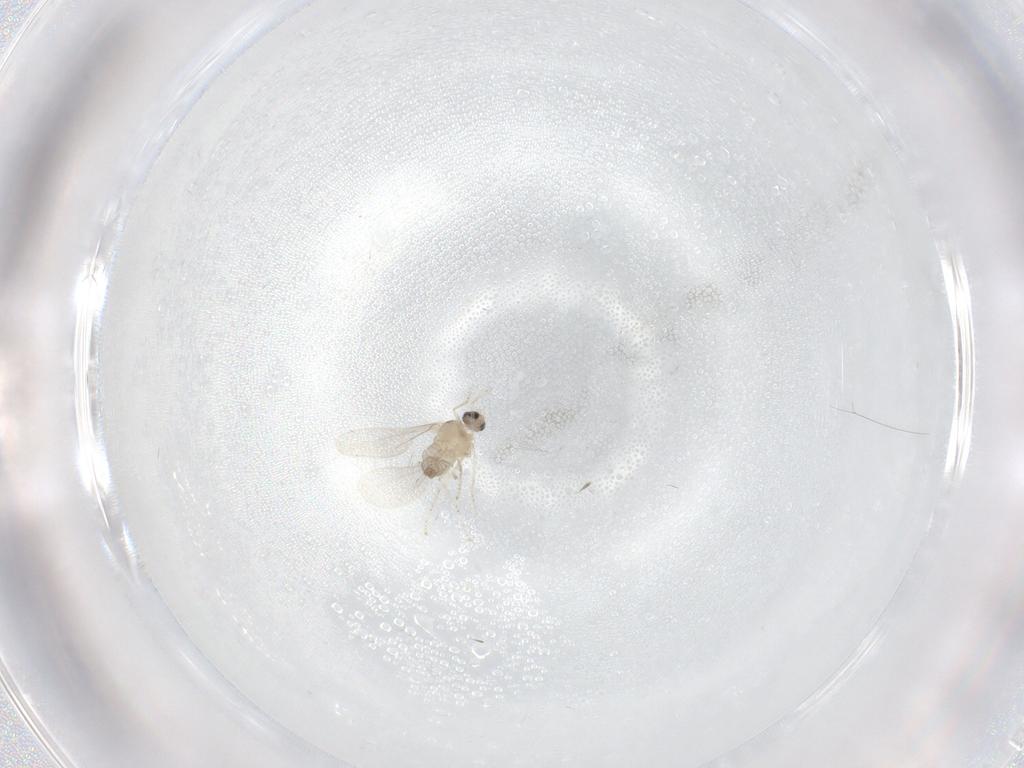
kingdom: Animalia
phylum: Arthropoda
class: Insecta
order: Diptera
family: Cecidomyiidae
